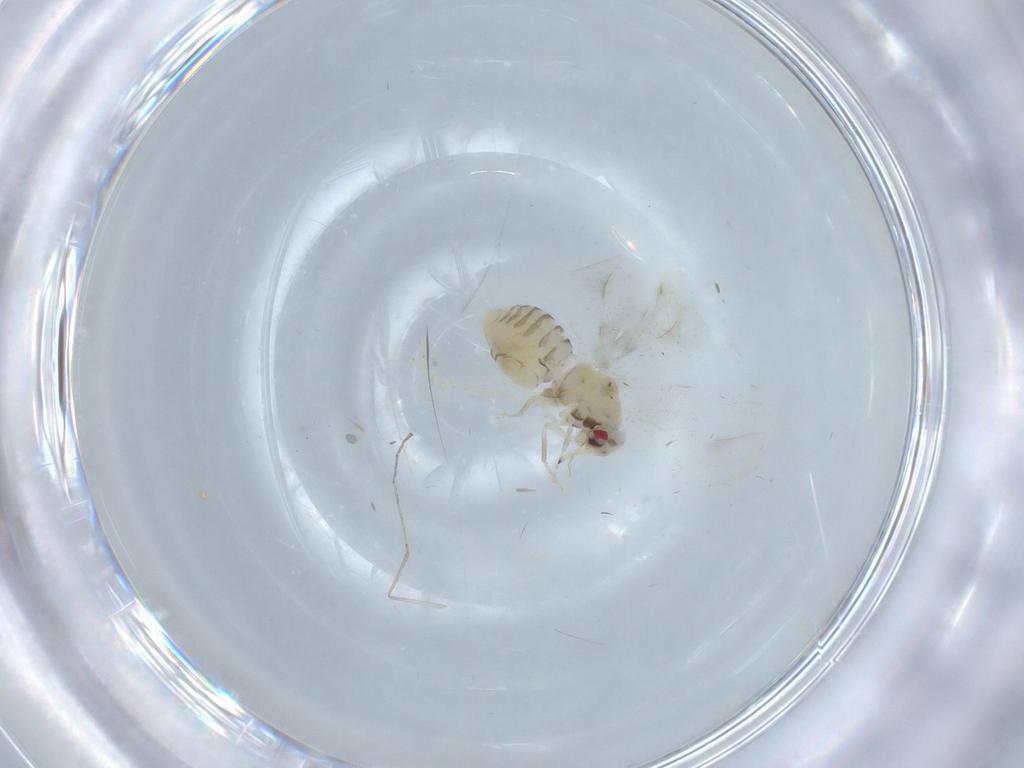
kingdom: Animalia
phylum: Arthropoda
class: Insecta
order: Hemiptera
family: Aleyrodidae
